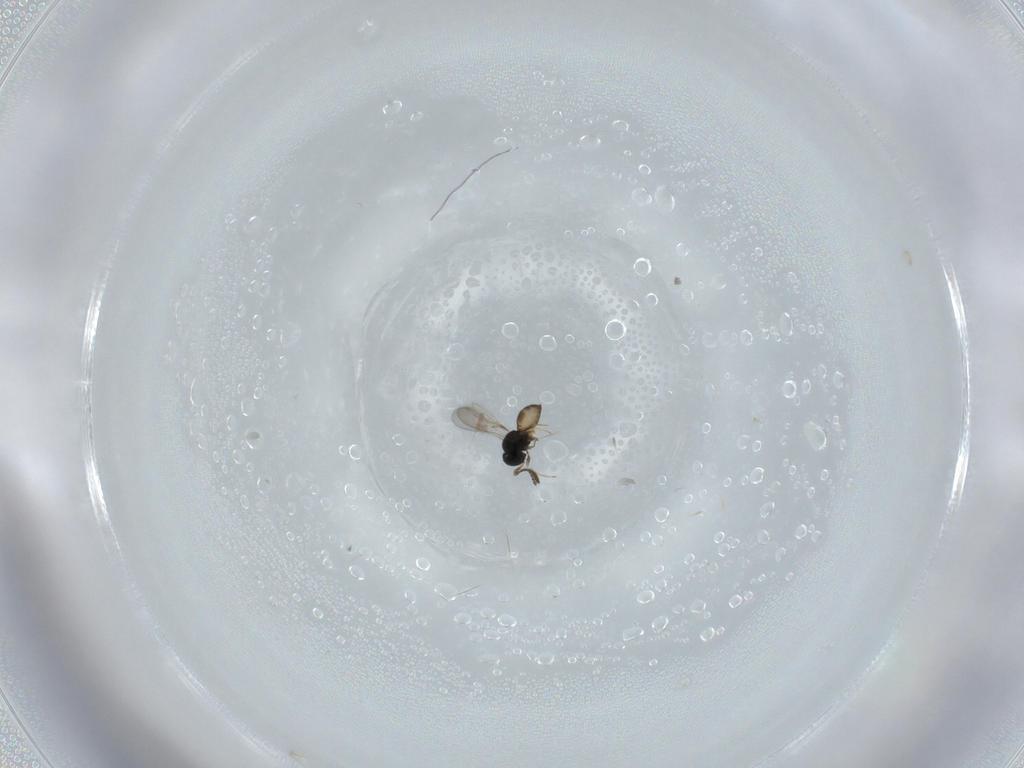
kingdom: Animalia
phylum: Arthropoda
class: Insecta
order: Hymenoptera
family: Scelionidae
